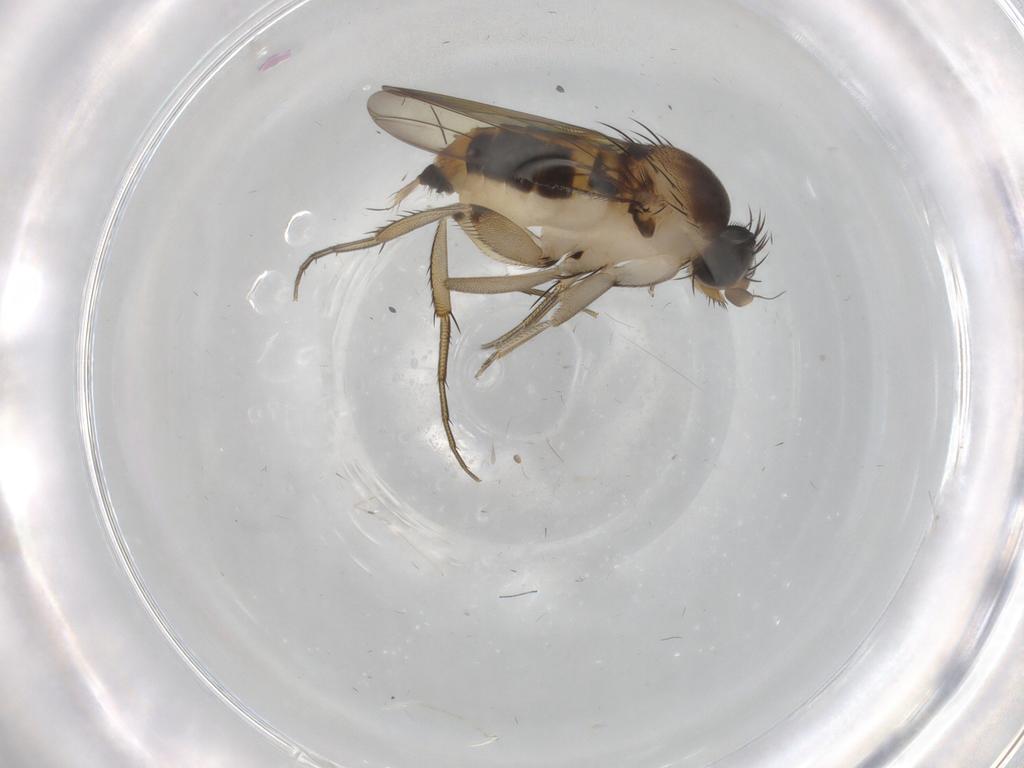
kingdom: Animalia
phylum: Arthropoda
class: Insecta
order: Diptera
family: Phoridae
